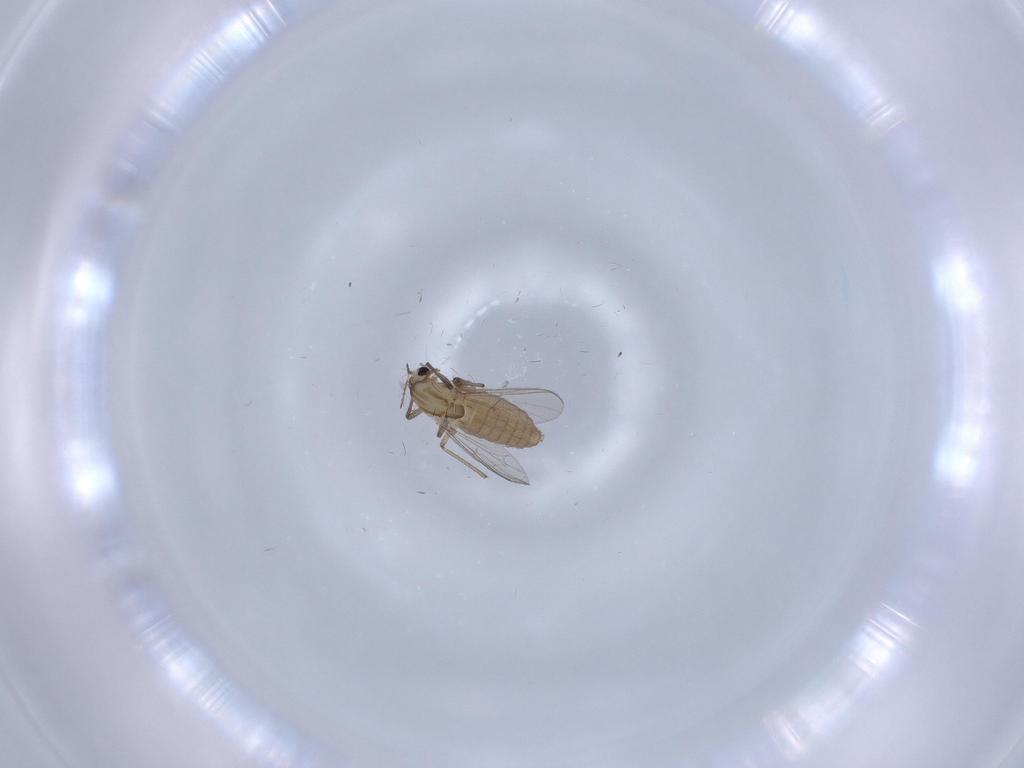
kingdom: Animalia
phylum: Arthropoda
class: Insecta
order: Diptera
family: Chironomidae
